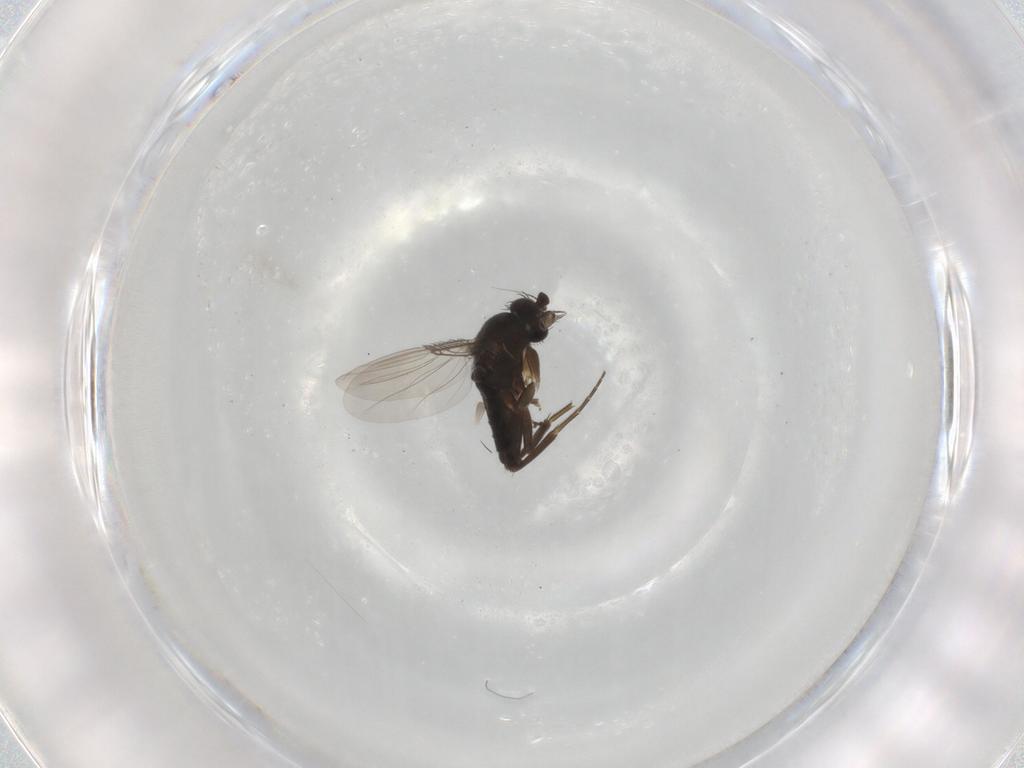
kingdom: Animalia
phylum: Arthropoda
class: Insecta
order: Diptera
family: Phoridae
